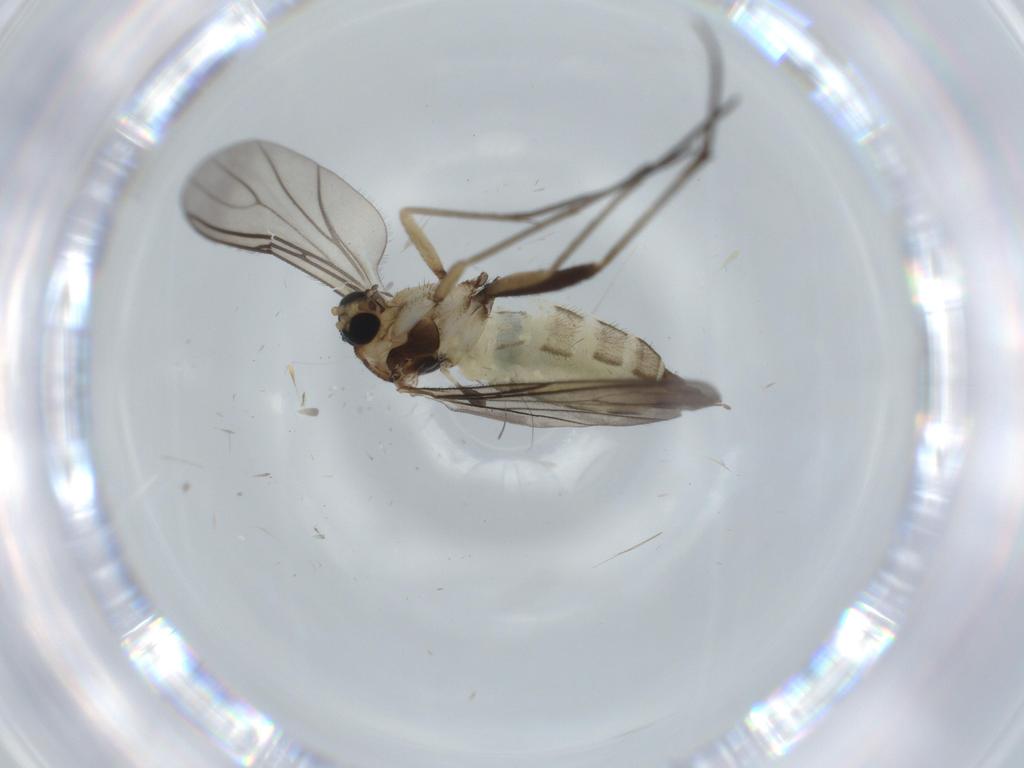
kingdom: Animalia
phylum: Arthropoda
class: Insecta
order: Diptera
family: Sciaridae
